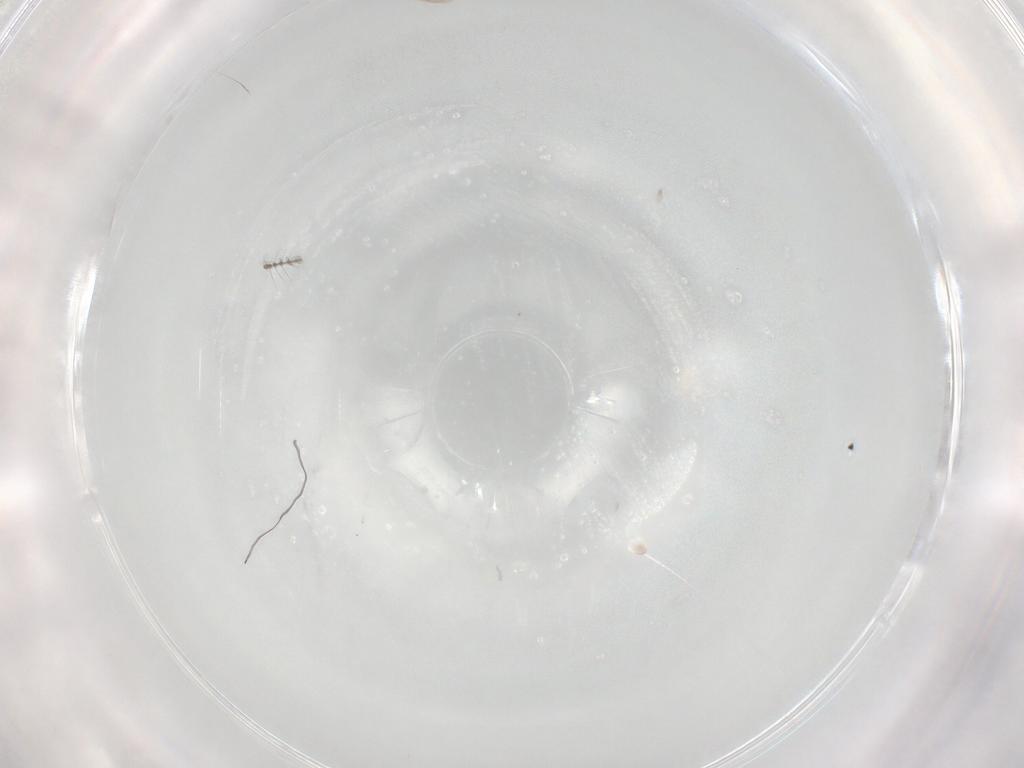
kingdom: Animalia
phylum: Arthropoda
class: Insecta
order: Hemiptera
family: Aleyrodidae
